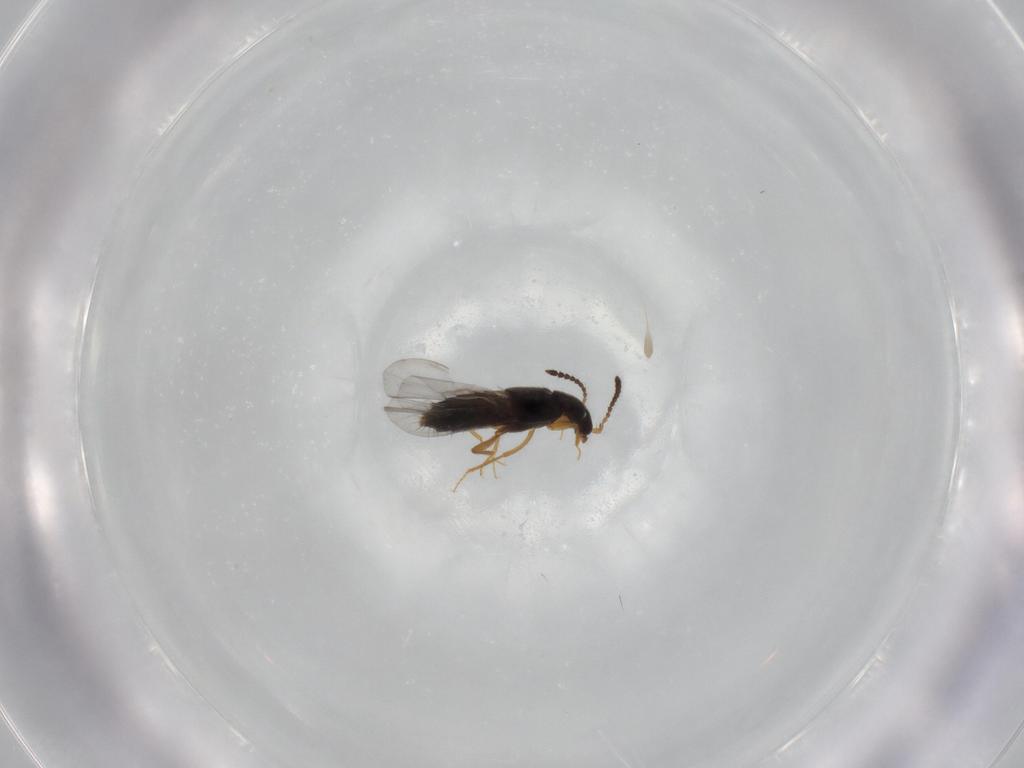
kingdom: Animalia
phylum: Arthropoda
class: Insecta
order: Coleoptera
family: Staphylinidae
